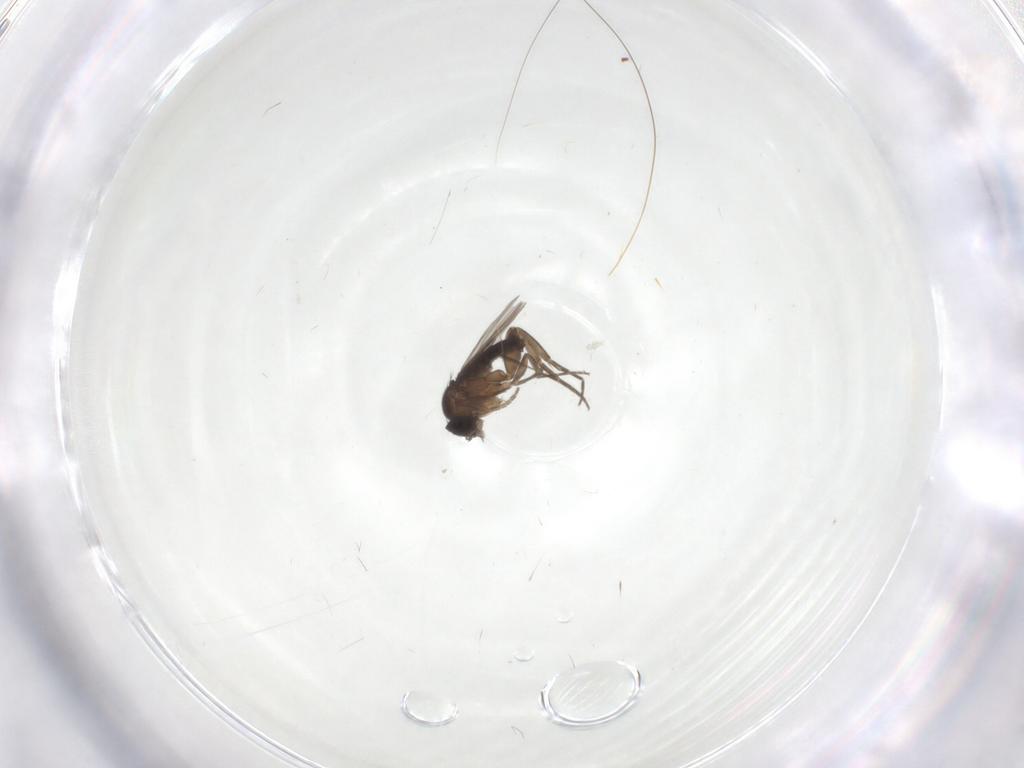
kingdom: Animalia
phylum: Arthropoda
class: Insecta
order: Diptera
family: Phoridae
